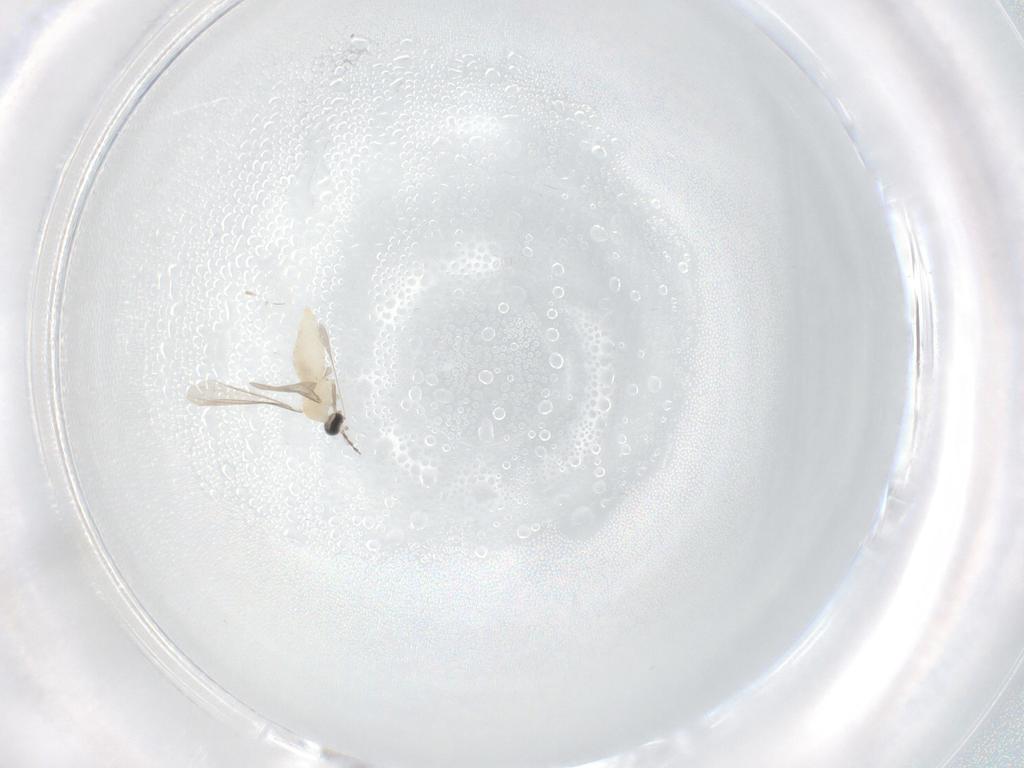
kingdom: Animalia
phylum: Arthropoda
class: Insecta
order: Diptera
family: Cecidomyiidae
